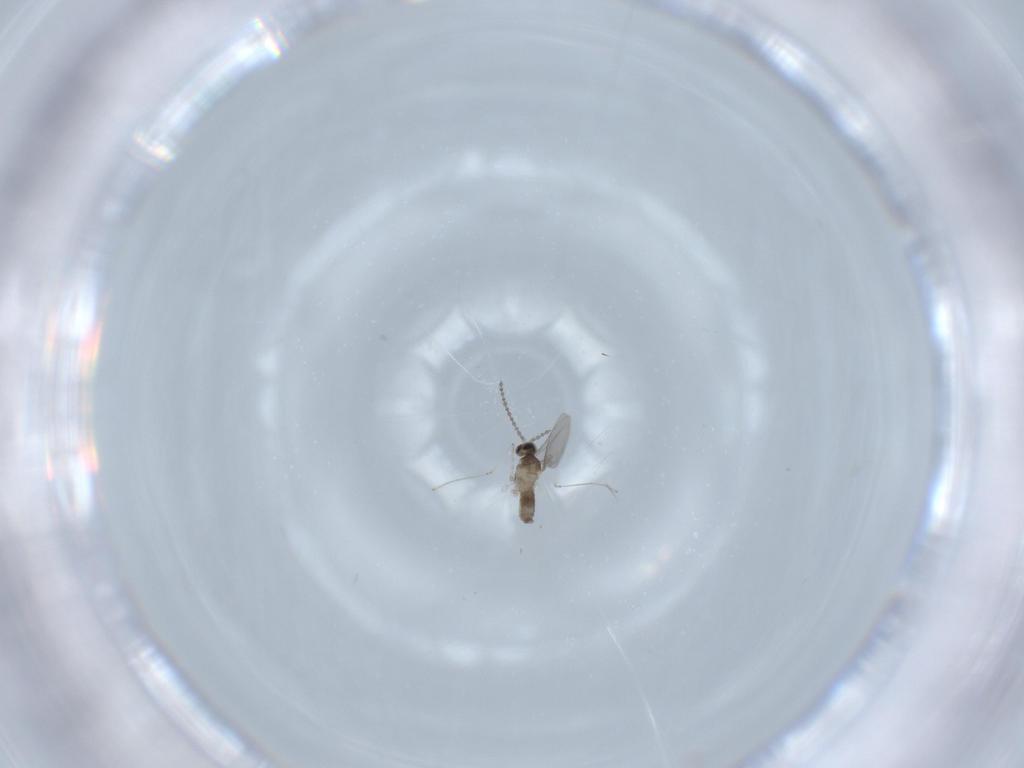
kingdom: Animalia
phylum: Arthropoda
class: Insecta
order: Diptera
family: Cecidomyiidae
